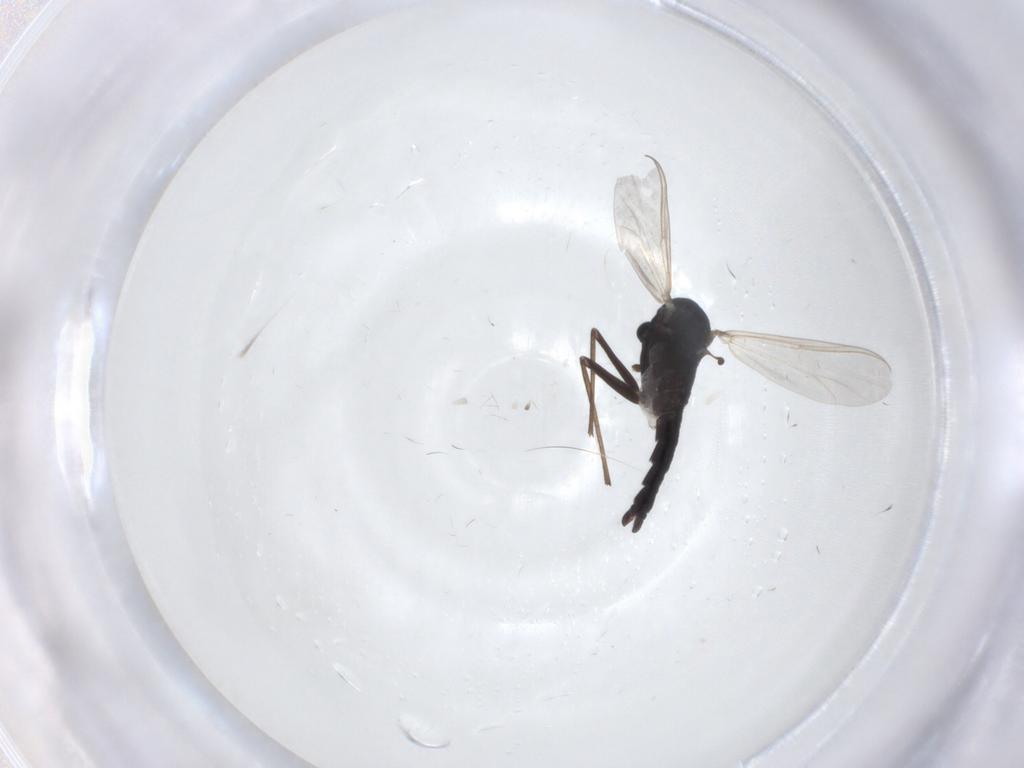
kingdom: Animalia
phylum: Arthropoda
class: Insecta
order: Diptera
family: Chironomidae
